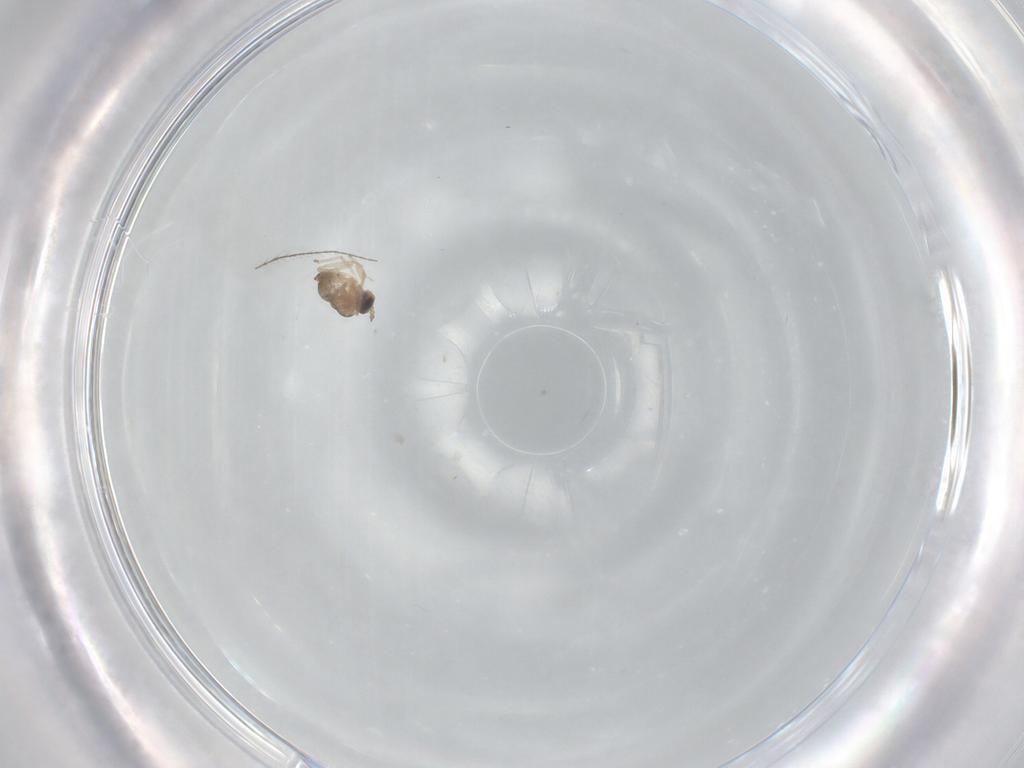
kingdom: Animalia
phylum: Arthropoda
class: Insecta
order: Diptera
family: Cecidomyiidae
